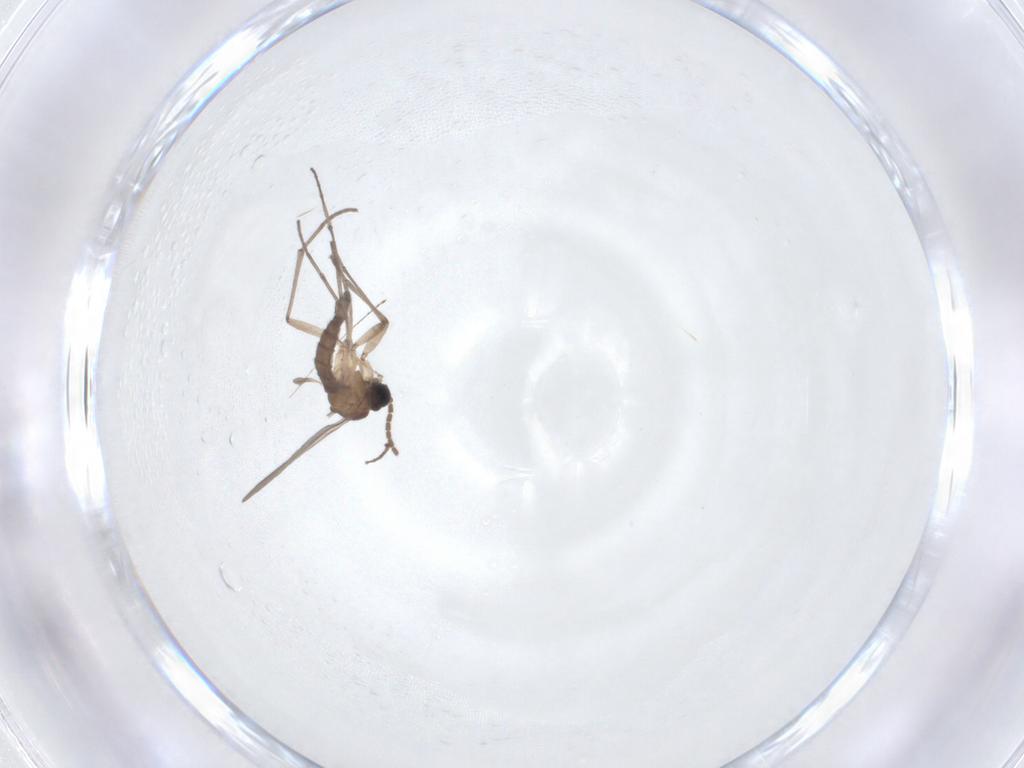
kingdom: Animalia
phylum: Arthropoda
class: Insecta
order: Diptera
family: Sciaridae
